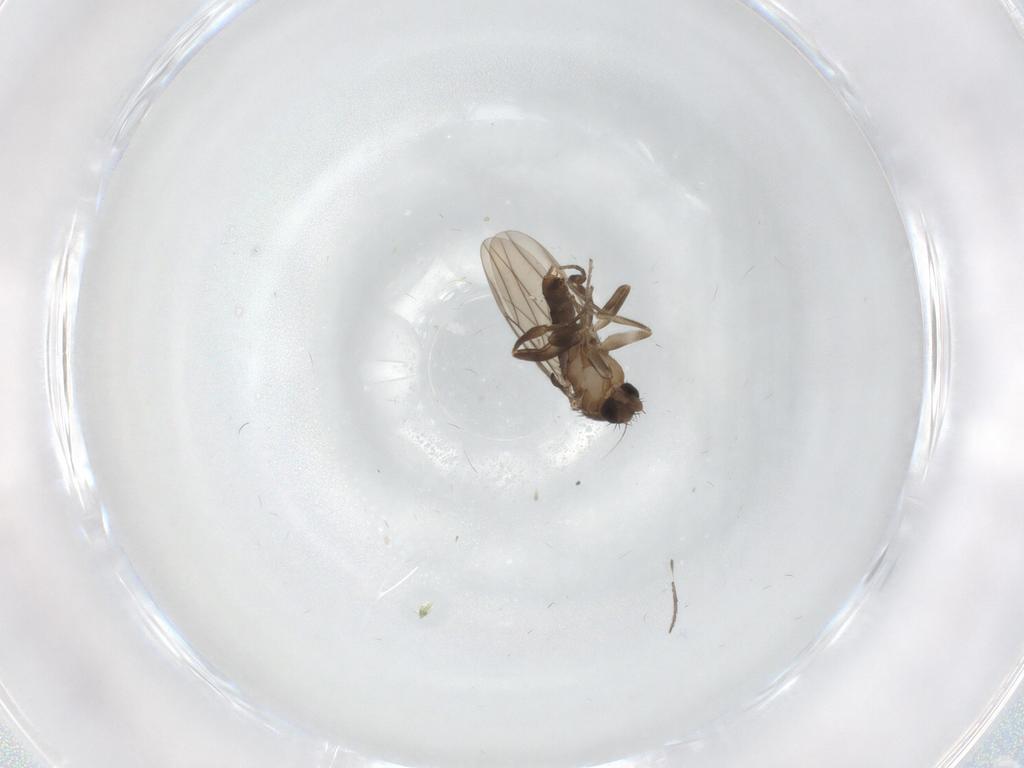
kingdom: Animalia
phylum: Arthropoda
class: Insecta
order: Diptera
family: Chironomidae
